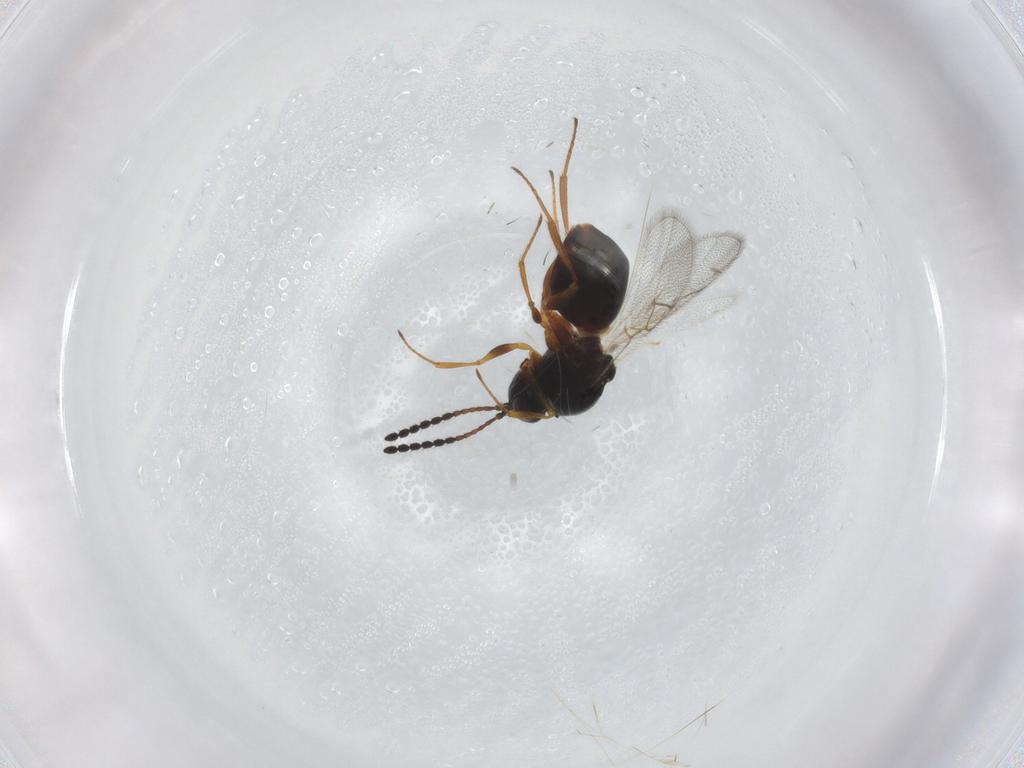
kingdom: Animalia
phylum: Arthropoda
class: Insecta
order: Hymenoptera
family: Figitidae
